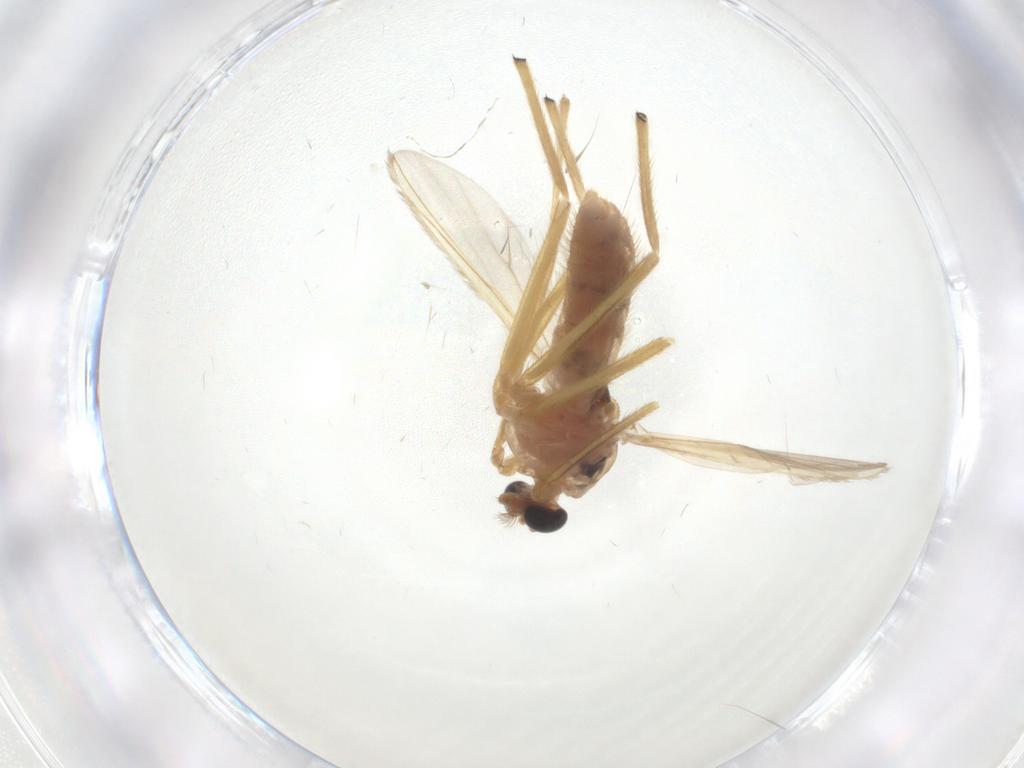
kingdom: Animalia
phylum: Arthropoda
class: Insecta
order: Diptera
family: Chironomidae
